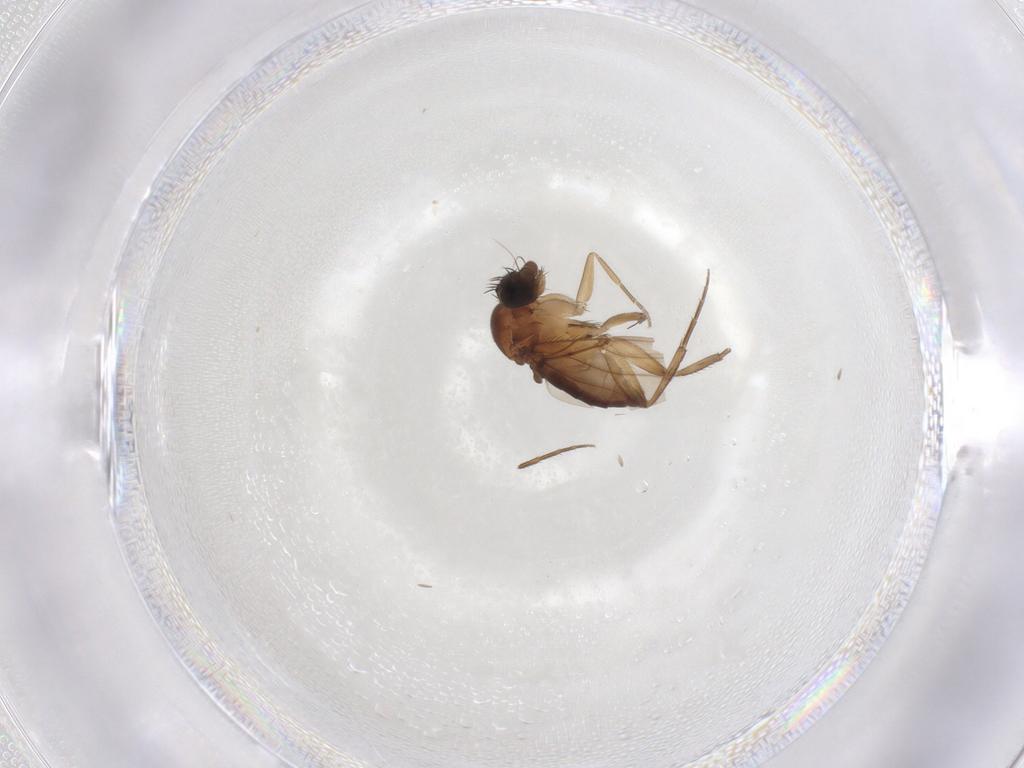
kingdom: Animalia
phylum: Arthropoda
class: Insecta
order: Diptera
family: Phoridae
